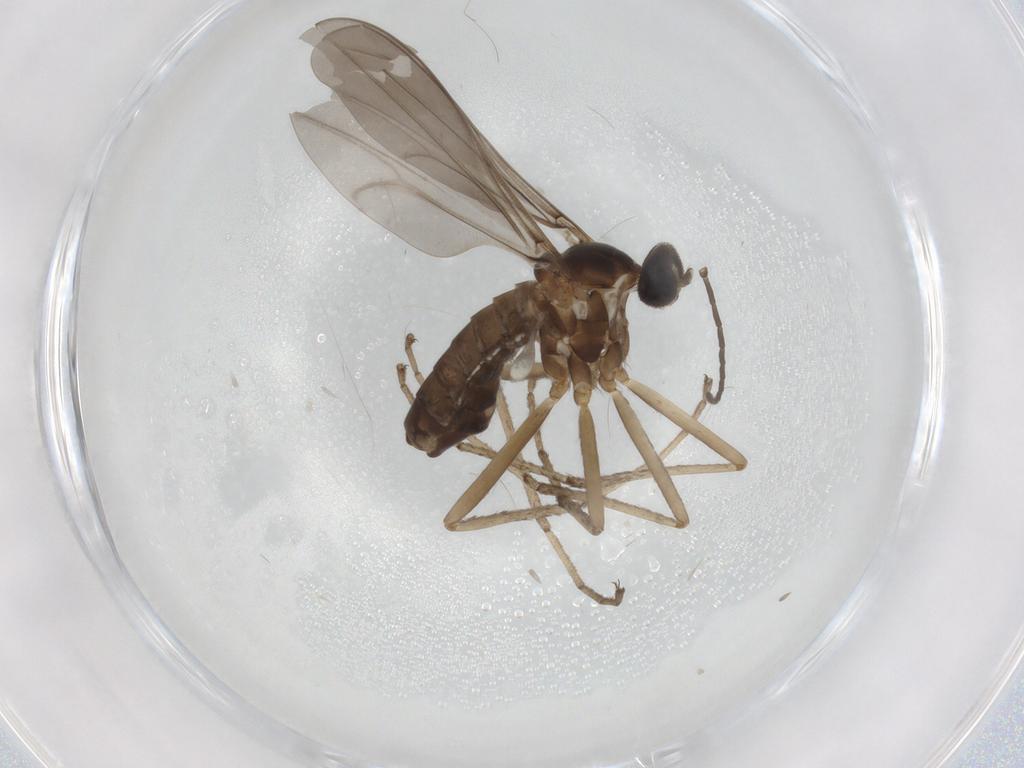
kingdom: Animalia
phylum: Arthropoda
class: Insecta
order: Diptera
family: Cecidomyiidae
